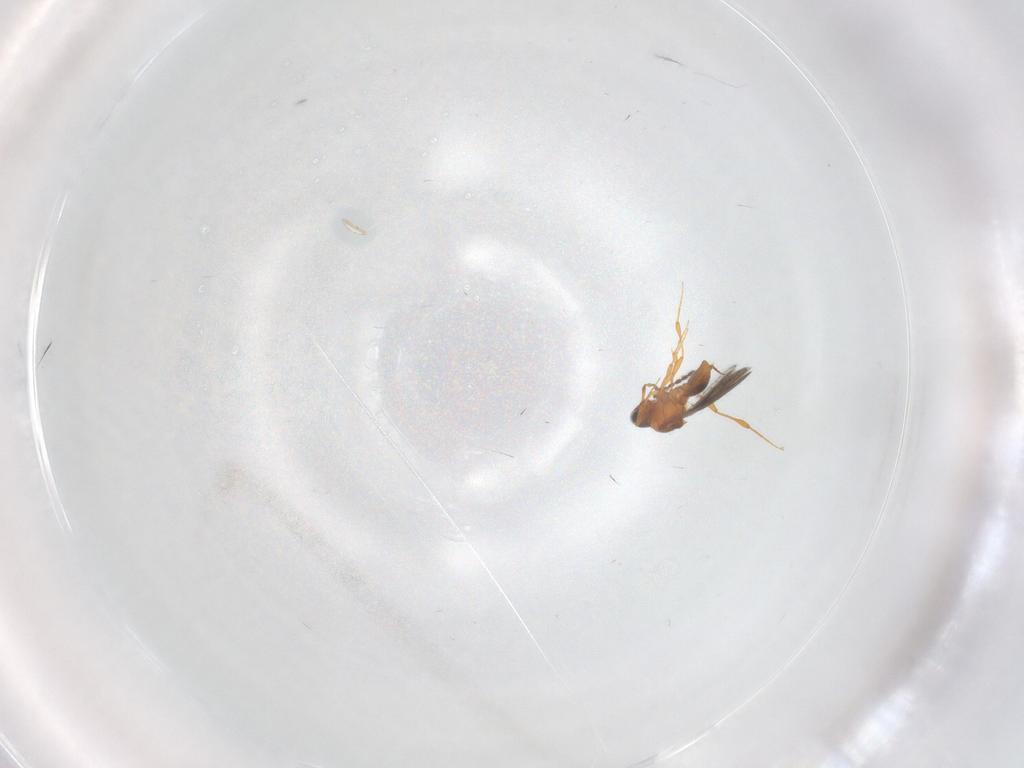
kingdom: Animalia
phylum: Arthropoda
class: Insecta
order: Hymenoptera
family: Platygastridae
